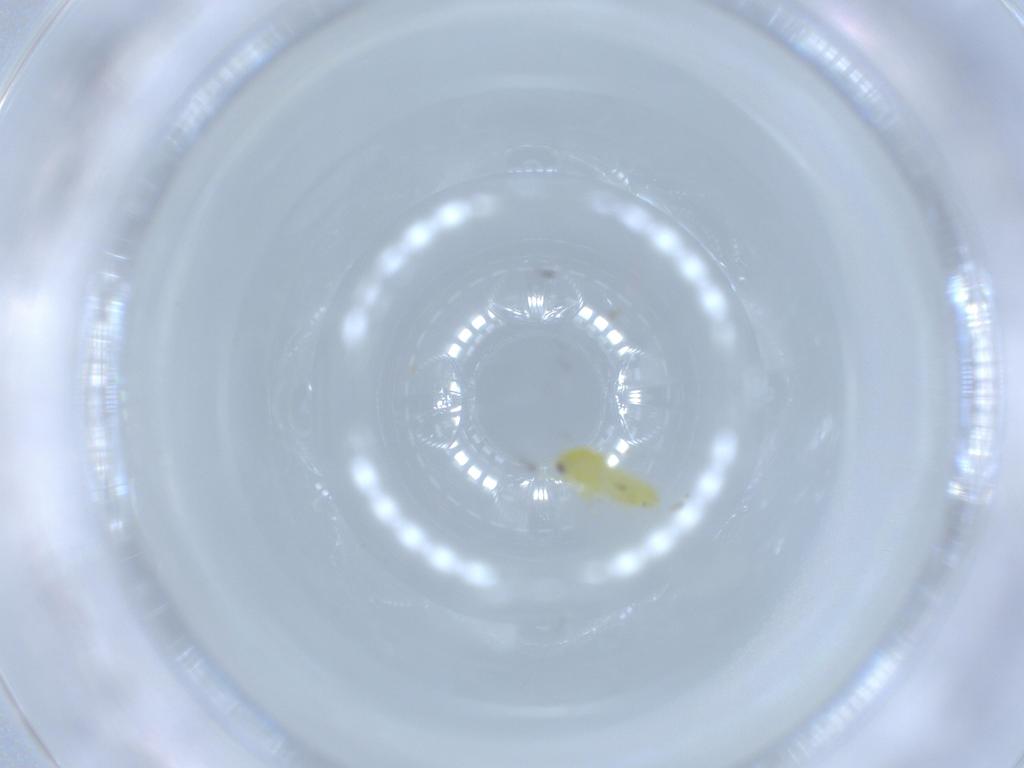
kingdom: Animalia
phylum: Arthropoda
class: Insecta
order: Hemiptera
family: Aleyrodidae
